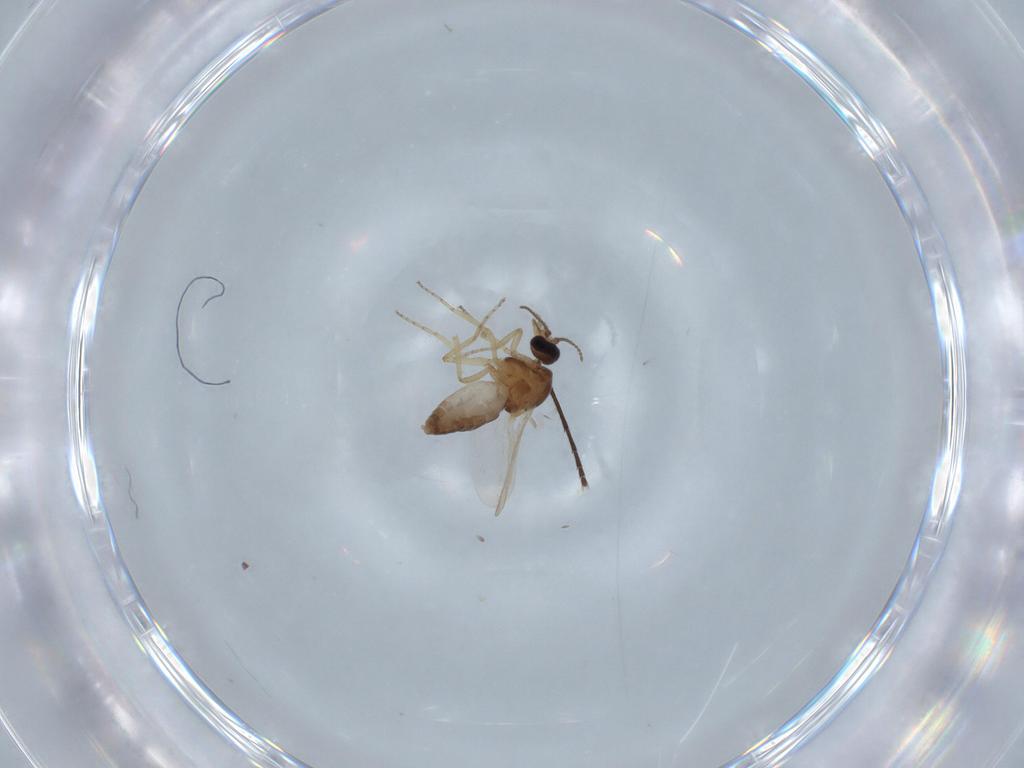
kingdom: Animalia
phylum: Arthropoda
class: Insecta
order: Diptera
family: Ceratopogonidae
